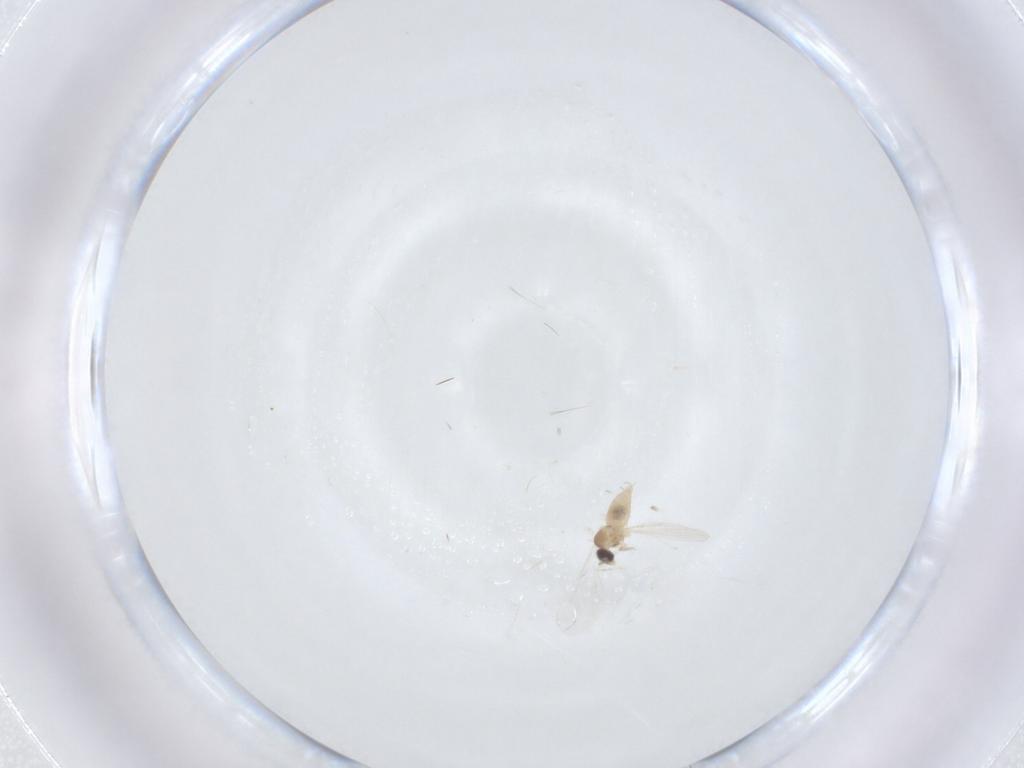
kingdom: Animalia
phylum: Arthropoda
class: Insecta
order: Diptera
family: Cecidomyiidae
